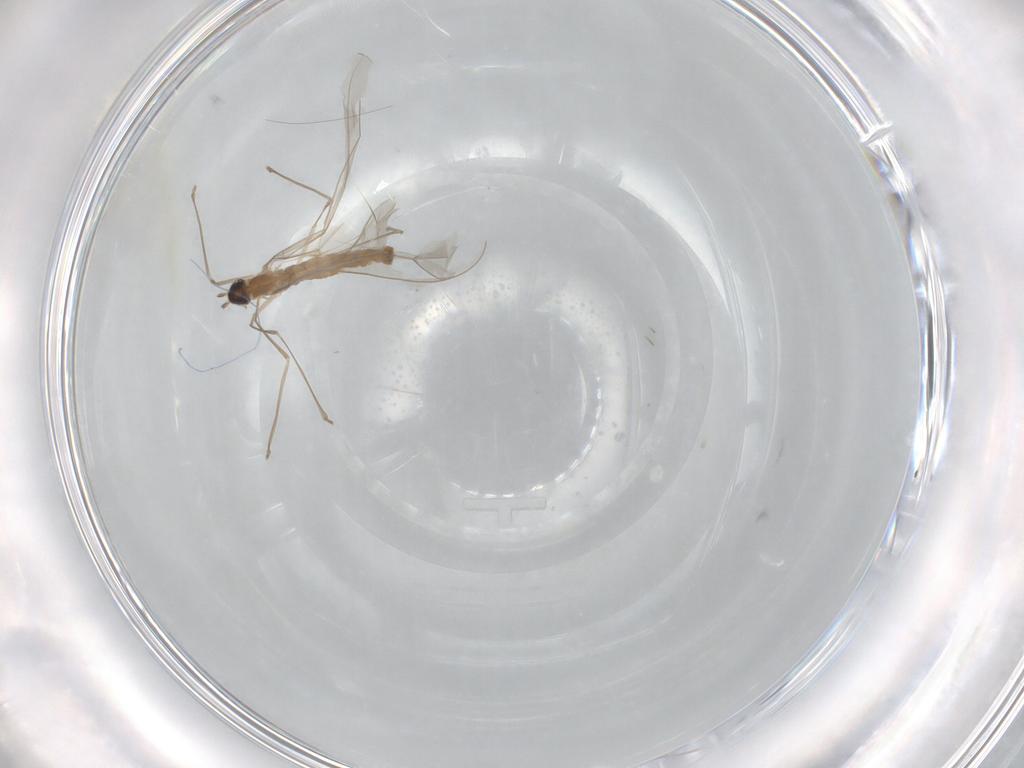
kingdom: Animalia
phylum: Arthropoda
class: Insecta
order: Diptera
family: Cecidomyiidae
